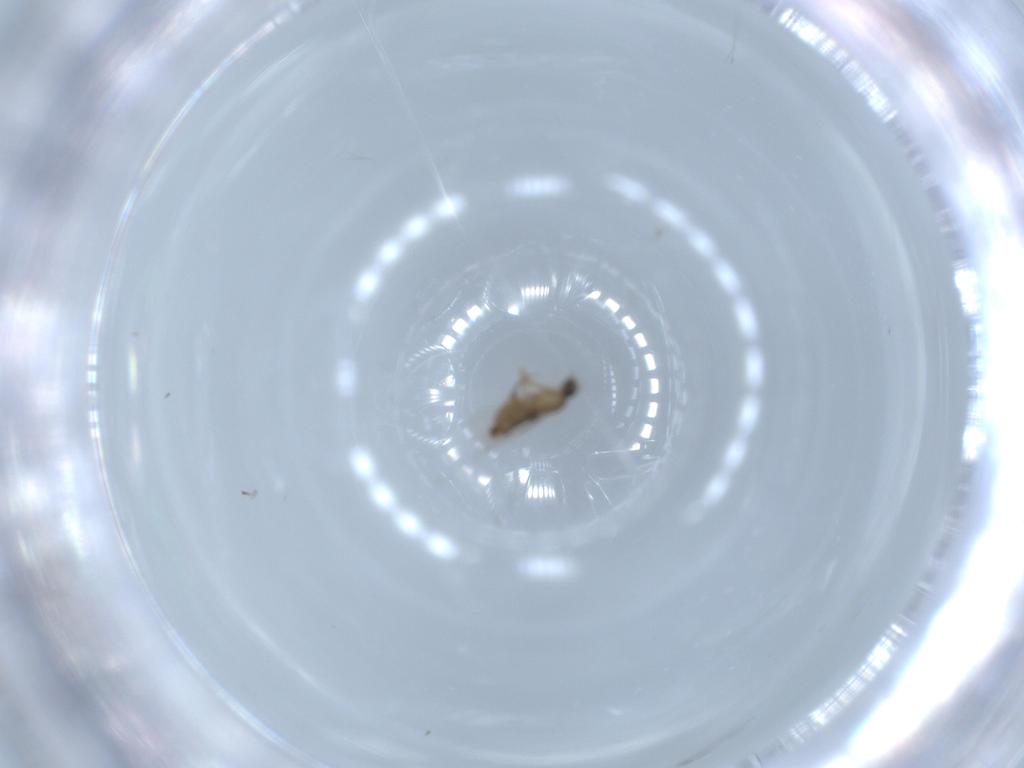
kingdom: Animalia
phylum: Arthropoda
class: Insecta
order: Diptera
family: Phoridae
